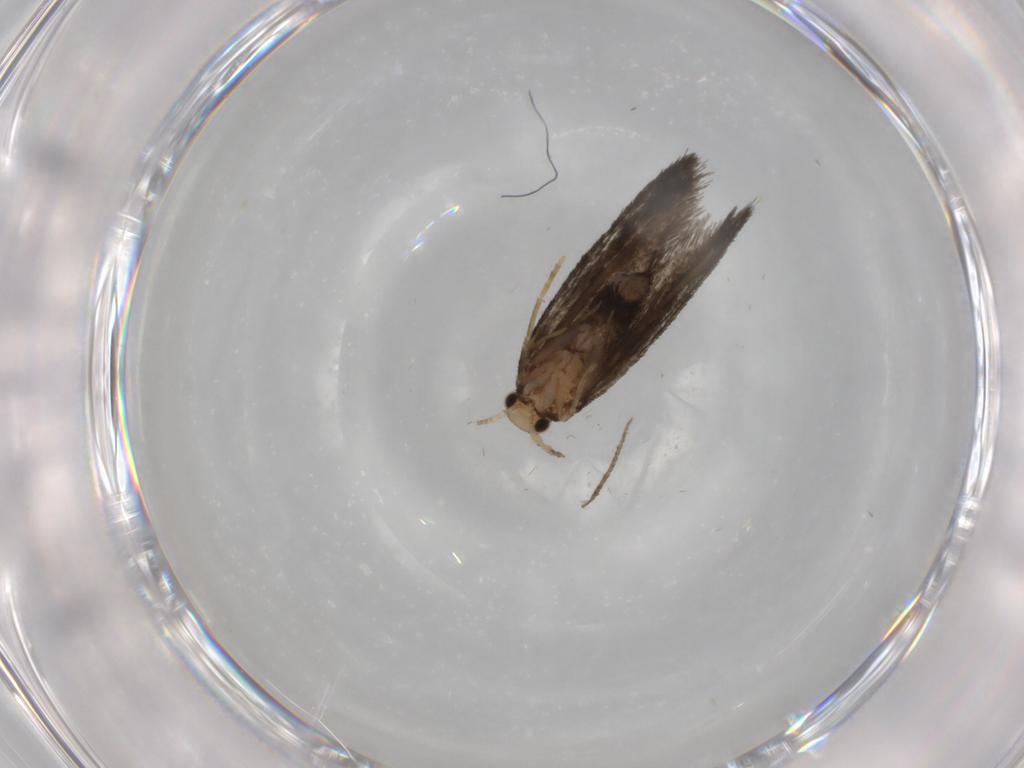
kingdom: Animalia
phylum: Arthropoda
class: Insecta
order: Lepidoptera
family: Psychidae
